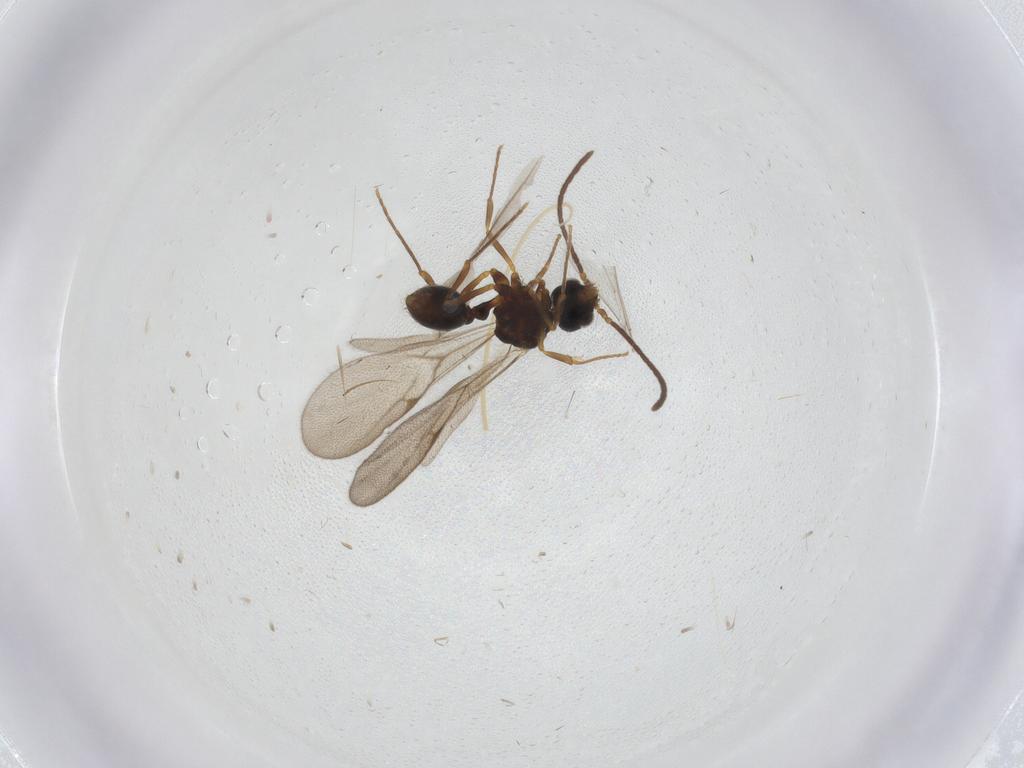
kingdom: Animalia
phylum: Arthropoda
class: Insecta
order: Hymenoptera
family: Formicidae
